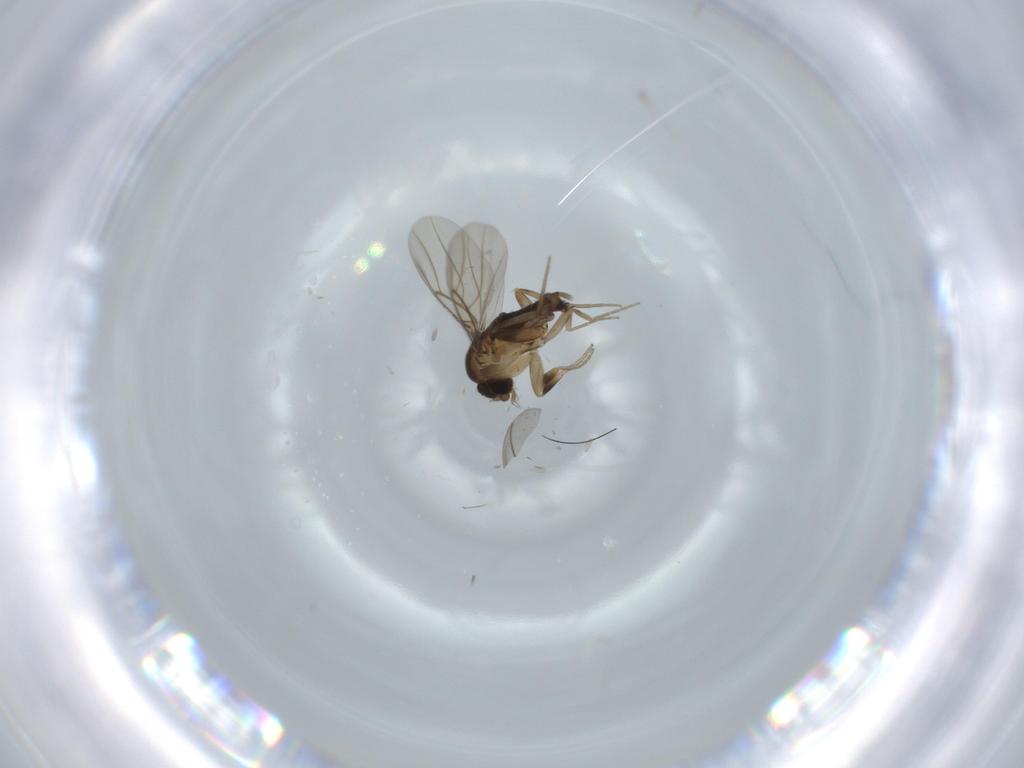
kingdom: Animalia
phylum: Arthropoda
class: Insecta
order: Diptera
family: Phoridae
